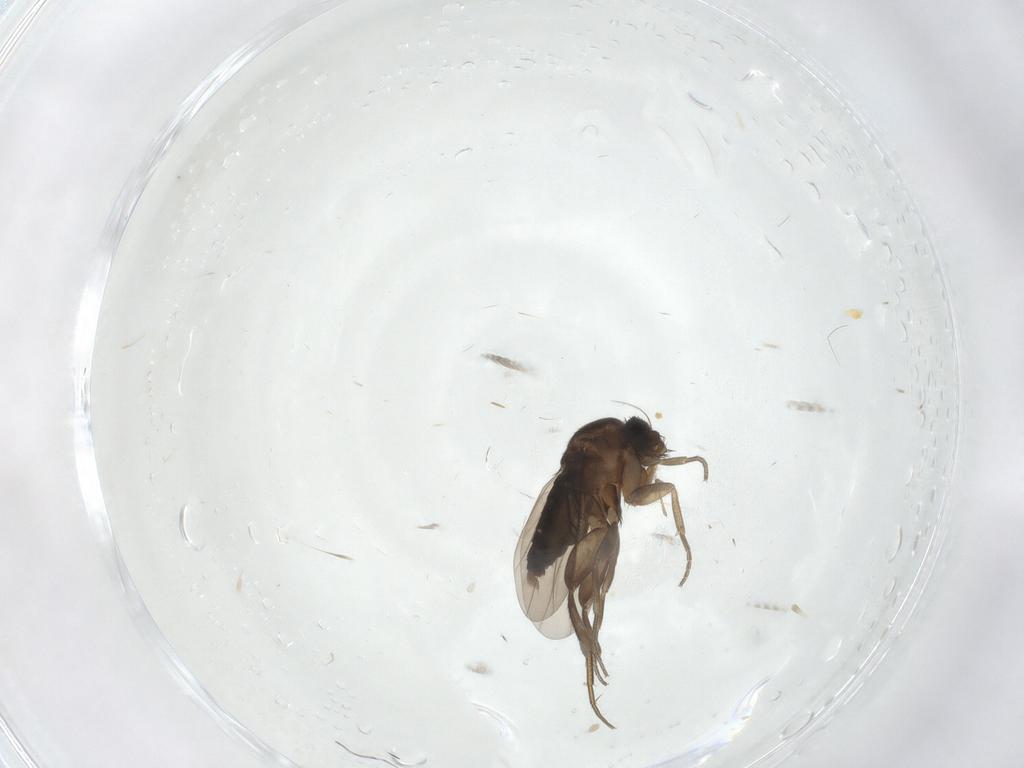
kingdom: Animalia
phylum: Arthropoda
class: Insecta
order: Diptera
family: Phoridae
